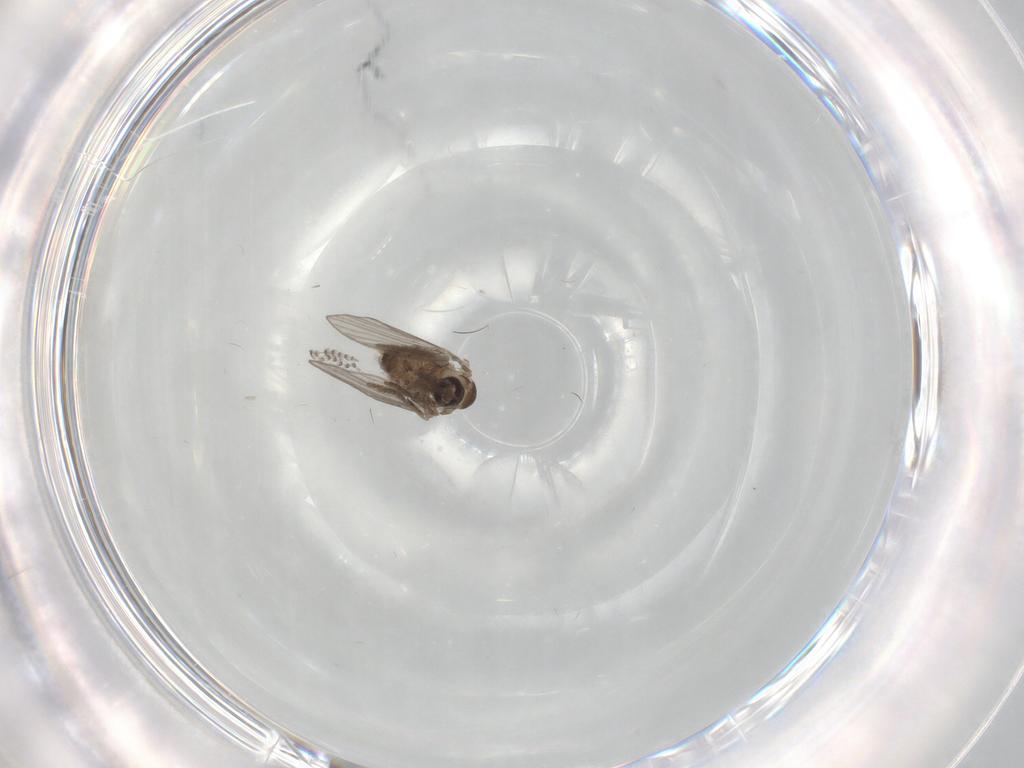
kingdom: Animalia
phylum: Arthropoda
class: Insecta
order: Diptera
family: Psychodidae
